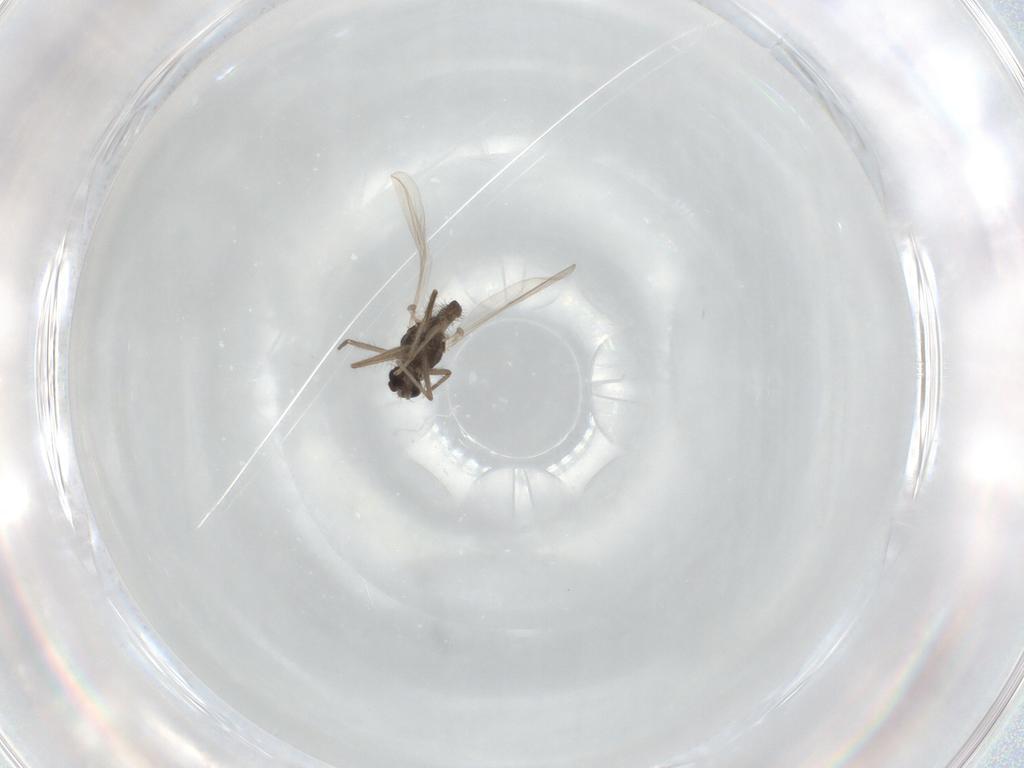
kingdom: Animalia
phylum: Arthropoda
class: Insecta
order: Diptera
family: Chironomidae
